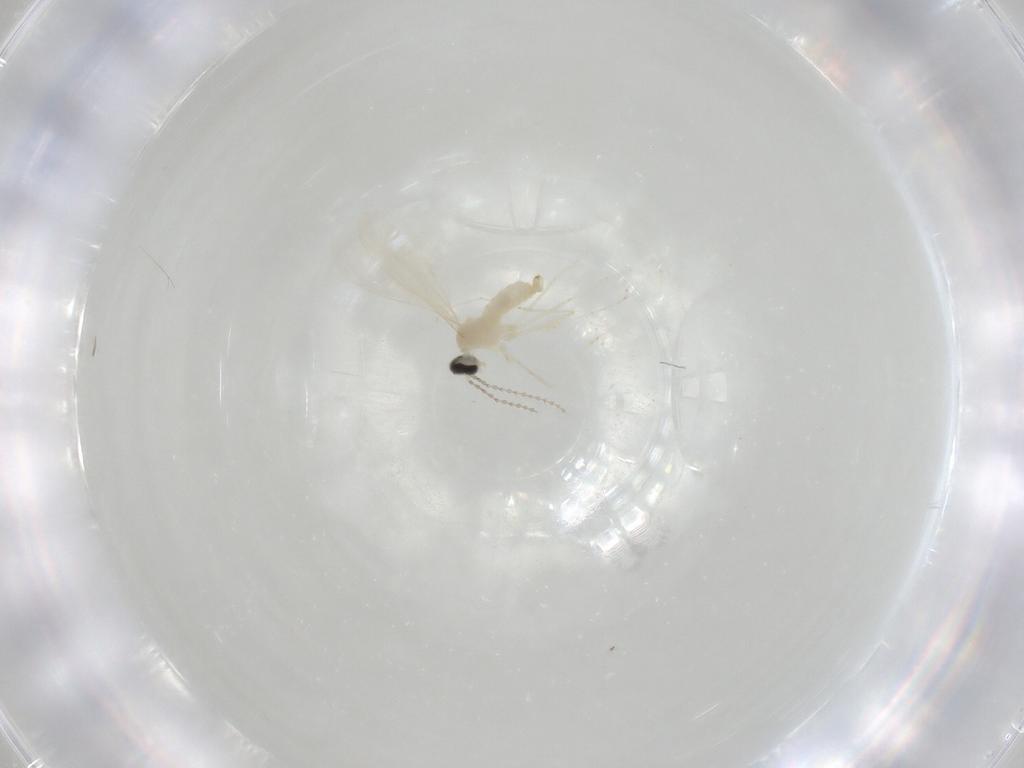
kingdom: Animalia
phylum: Arthropoda
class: Insecta
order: Diptera
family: Cecidomyiidae
